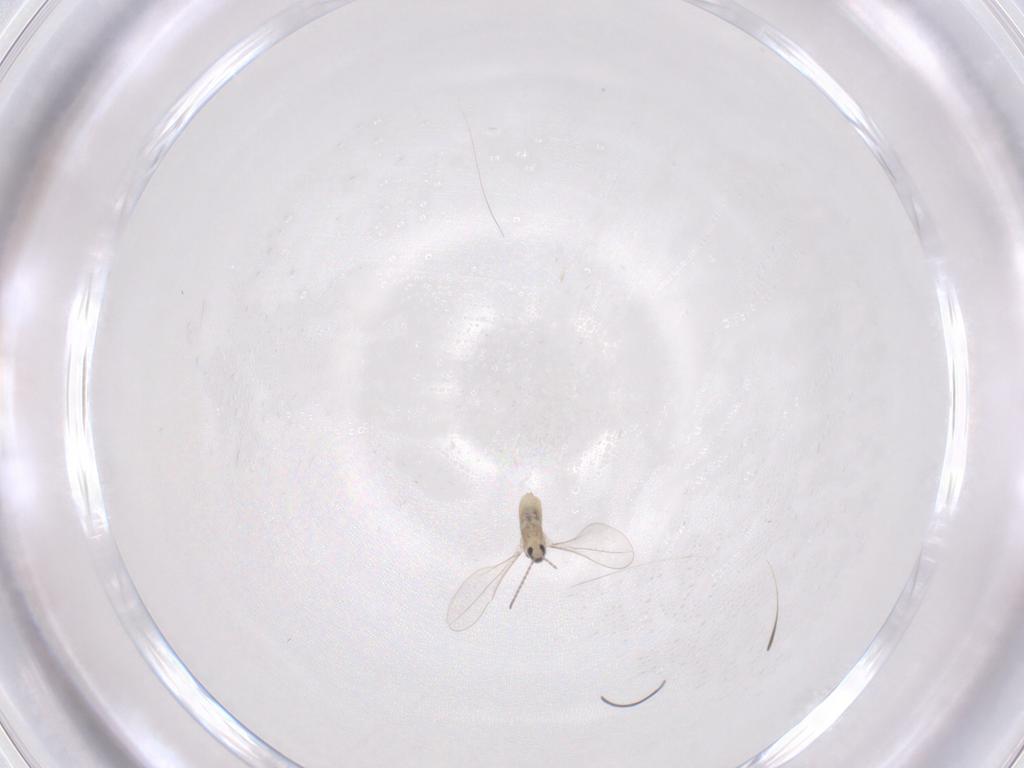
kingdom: Animalia
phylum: Arthropoda
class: Insecta
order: Diptera
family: Cecidomyiidae
